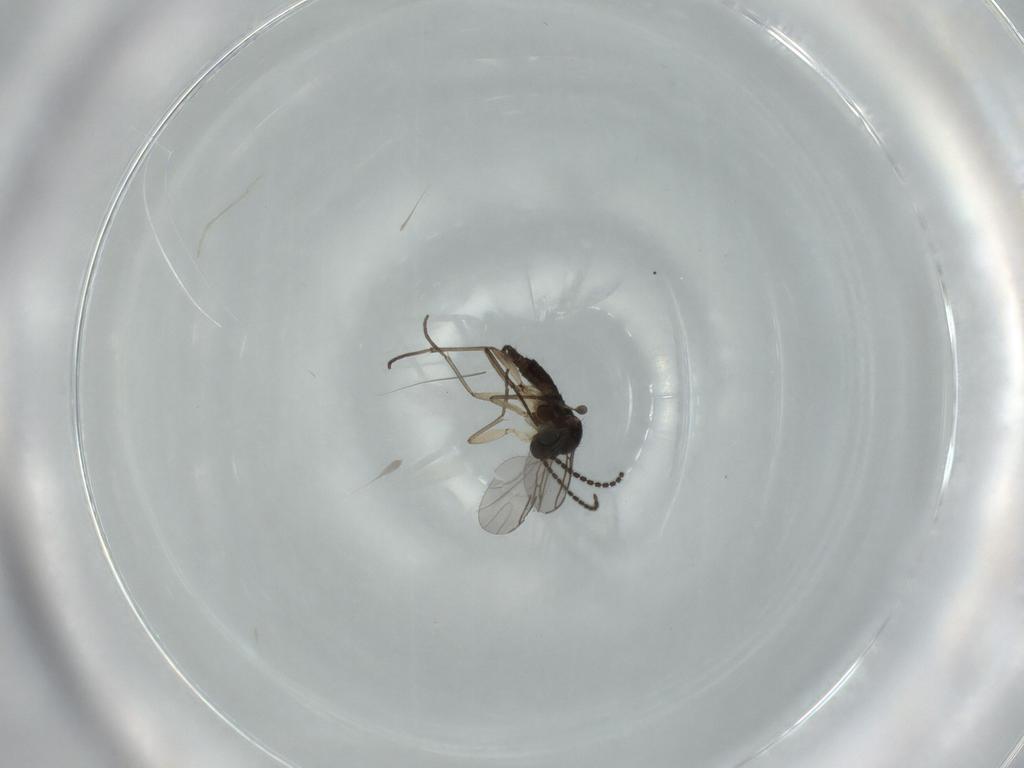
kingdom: Animalia
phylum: Arthropoda
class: Insecta
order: Diptera
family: Sciaridae
